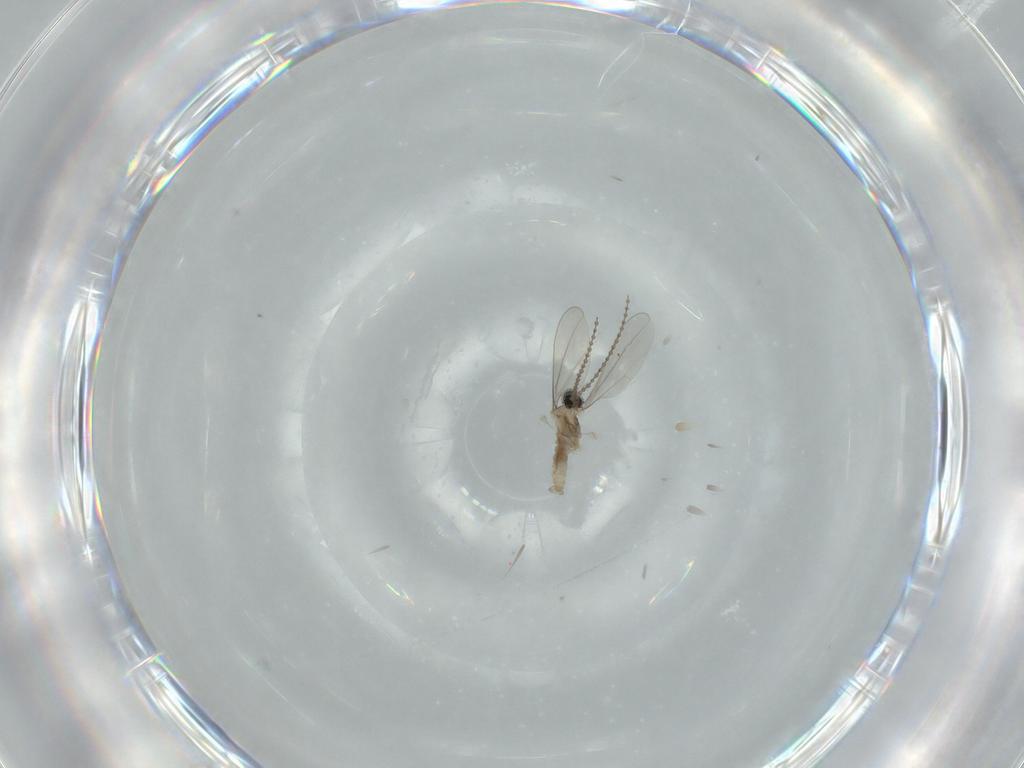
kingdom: Animalia
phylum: Arthropoda
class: Insecta
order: Diptera
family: Cecidomyiidae
